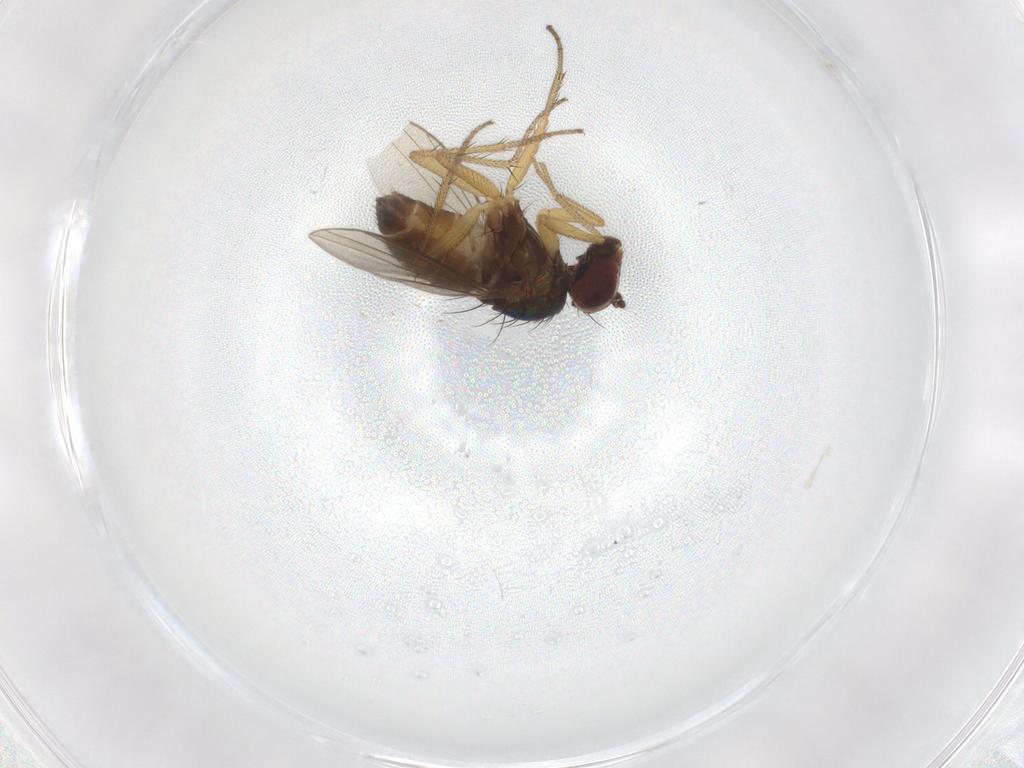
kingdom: Animalia
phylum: Arthropoda
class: Insecta
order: Diptera
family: Dolichopodidae
